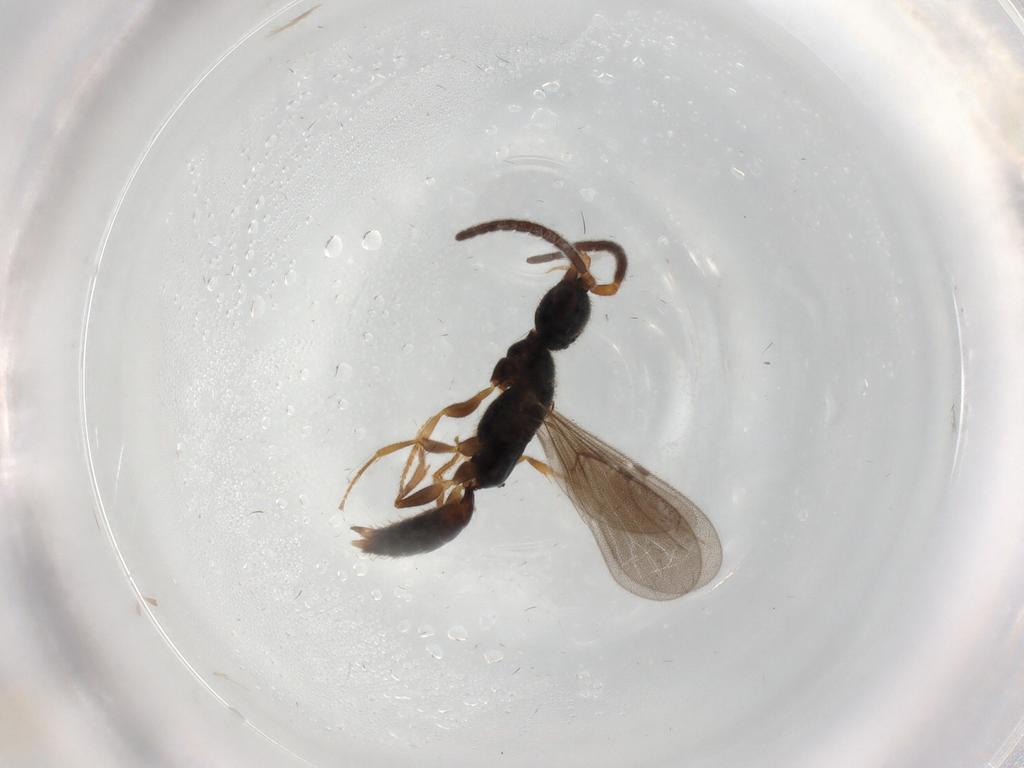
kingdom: Animalia
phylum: Arthropoda
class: Insecta
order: Hymenoptera
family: Bethylidae
